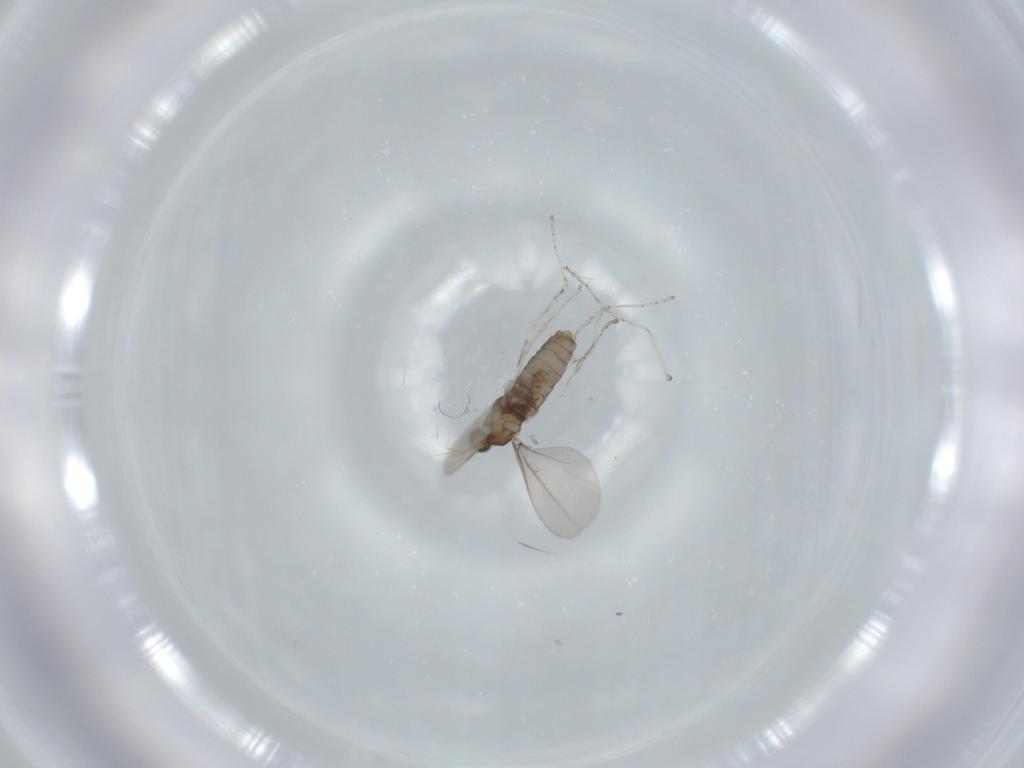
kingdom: Animalia
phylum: Arthropoda
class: Insecta
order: Diptera
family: Cecidomyiidae
